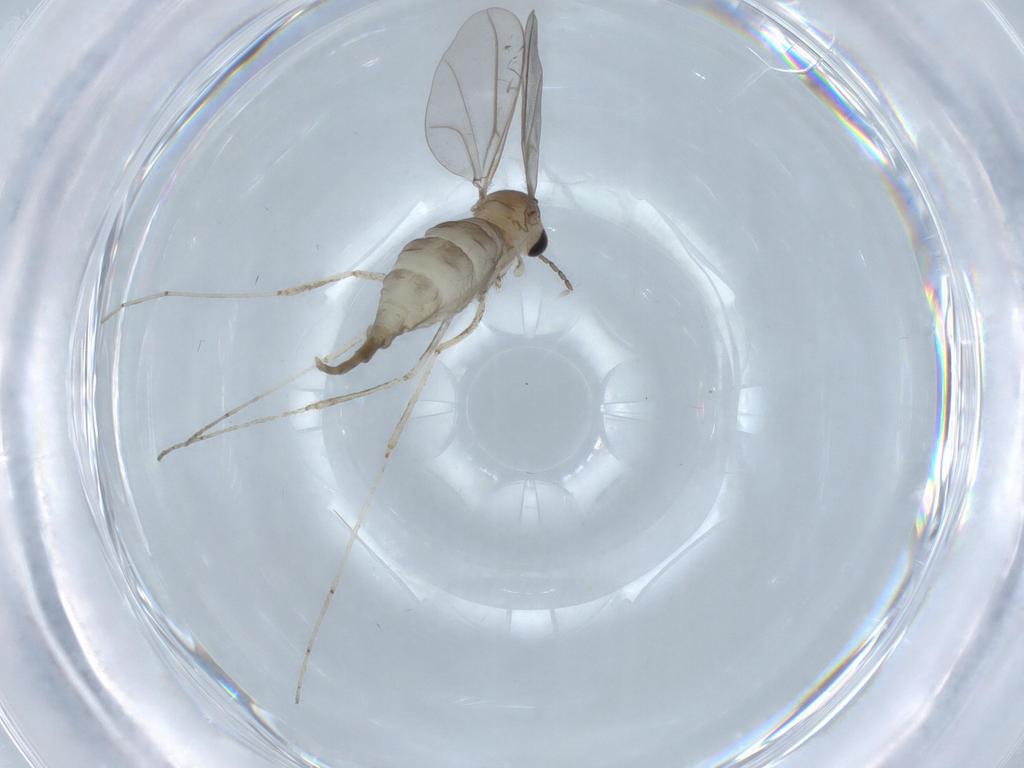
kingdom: Animalia
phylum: Arthropoda
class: Insecta
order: Diptera
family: Cecidomyiidae
